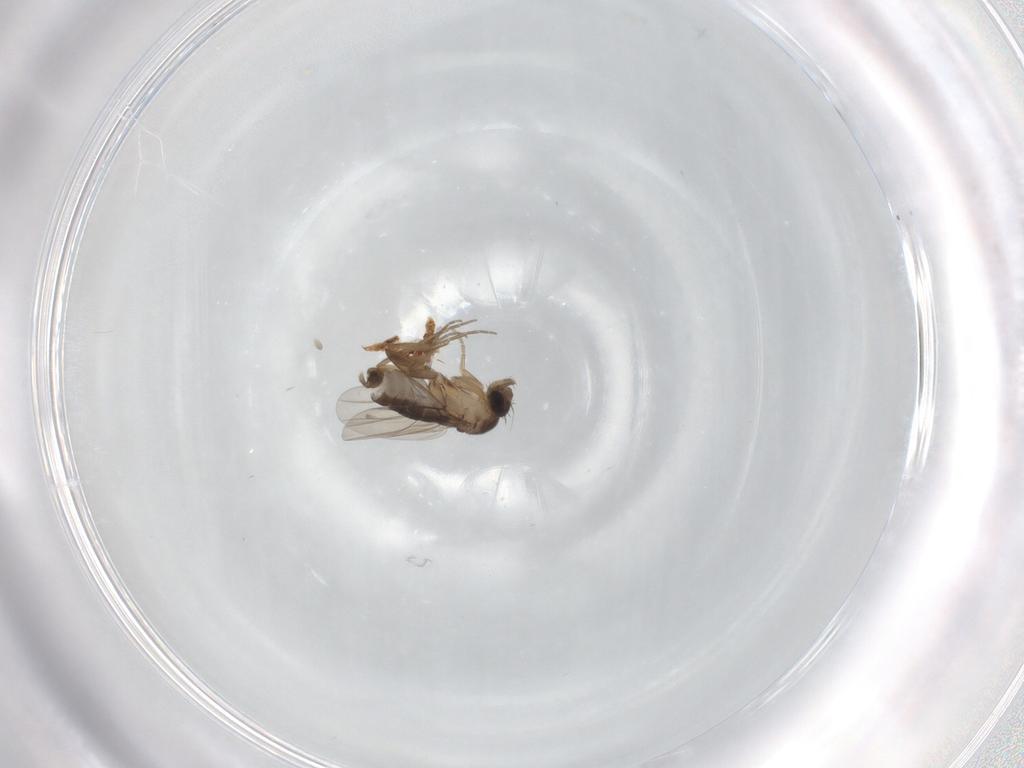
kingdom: Animalia
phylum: Arthropoda
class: Insecta
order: Diptera
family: Phoridae
